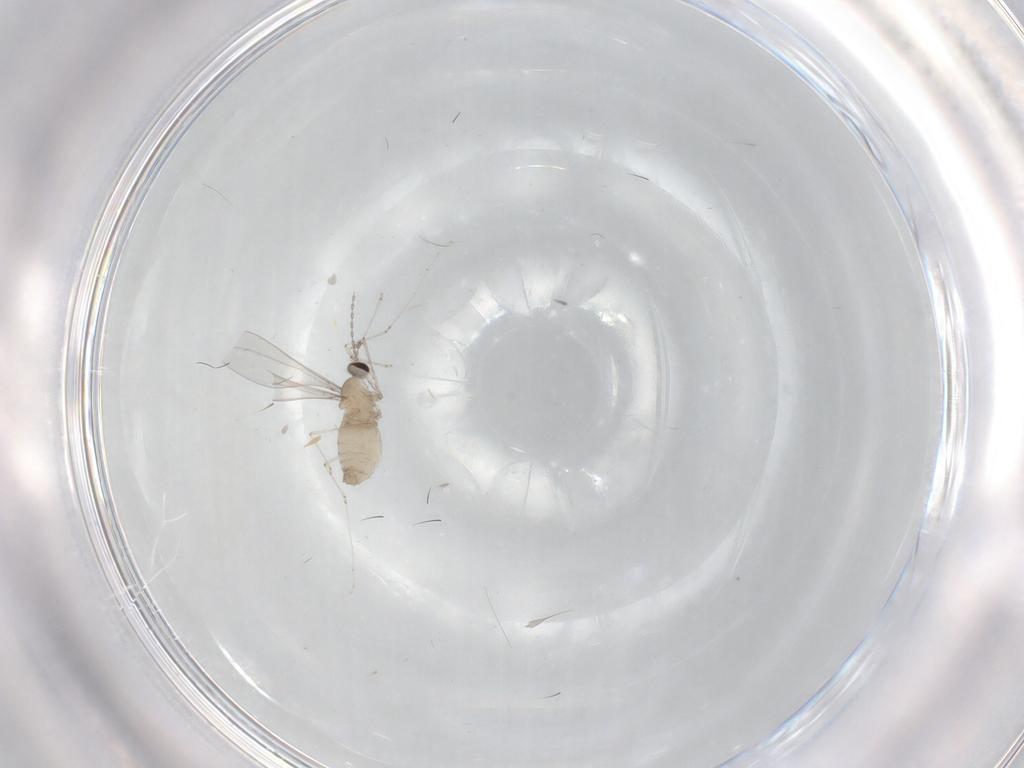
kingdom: Animalia
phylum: Arthropoda
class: Insecta
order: Diptera
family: Cecidomyiidae
